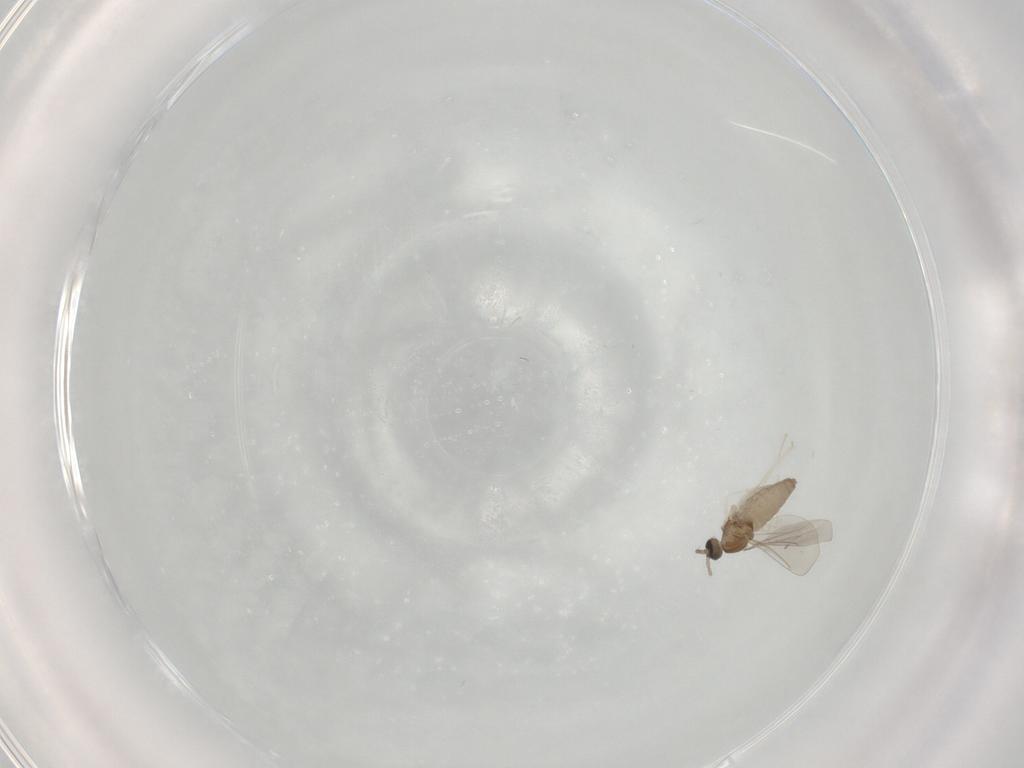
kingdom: Animalia
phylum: Arthropoda
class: Insecta
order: Diptera
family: Cecidomyiidae
